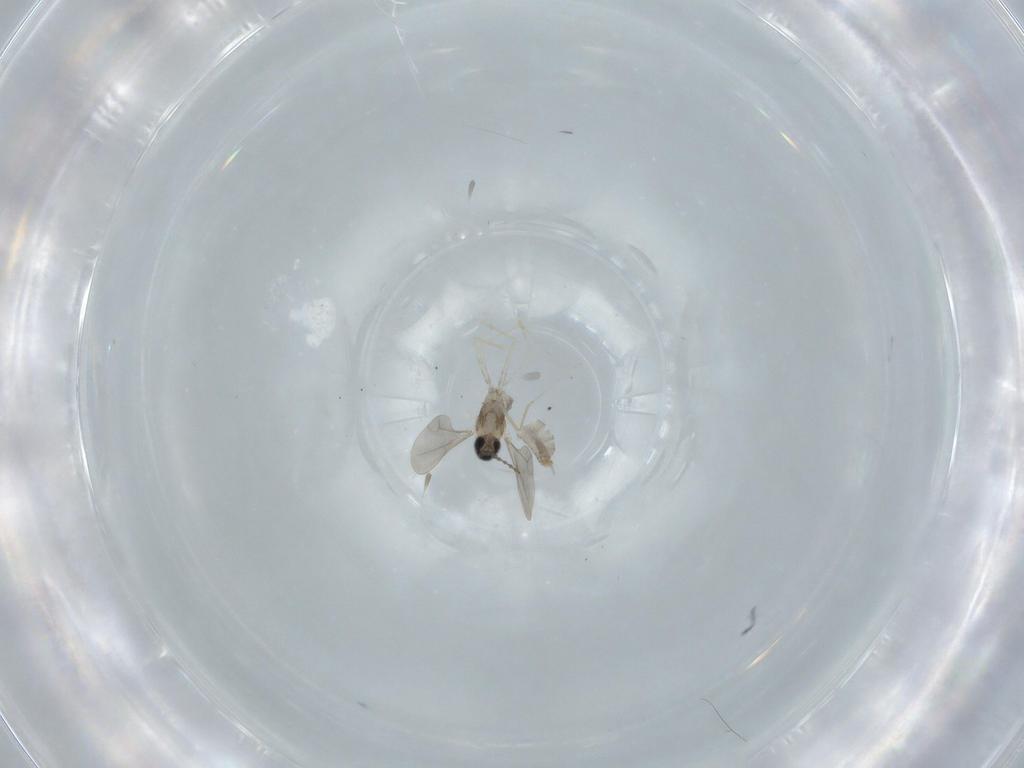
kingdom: Animalia
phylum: Arthropoda
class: Insecta
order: Diptera
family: Cecidomyiidae
